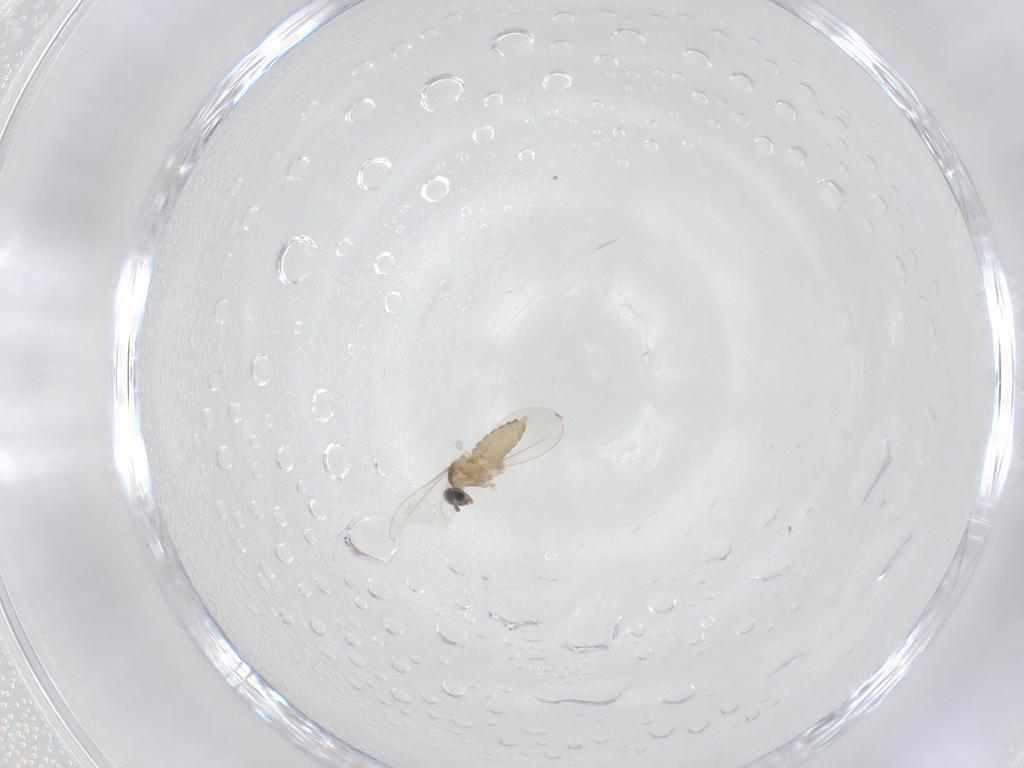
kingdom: Animalia
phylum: Arthropoda
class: Insecta
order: Diptera
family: Cecidomyiidae
